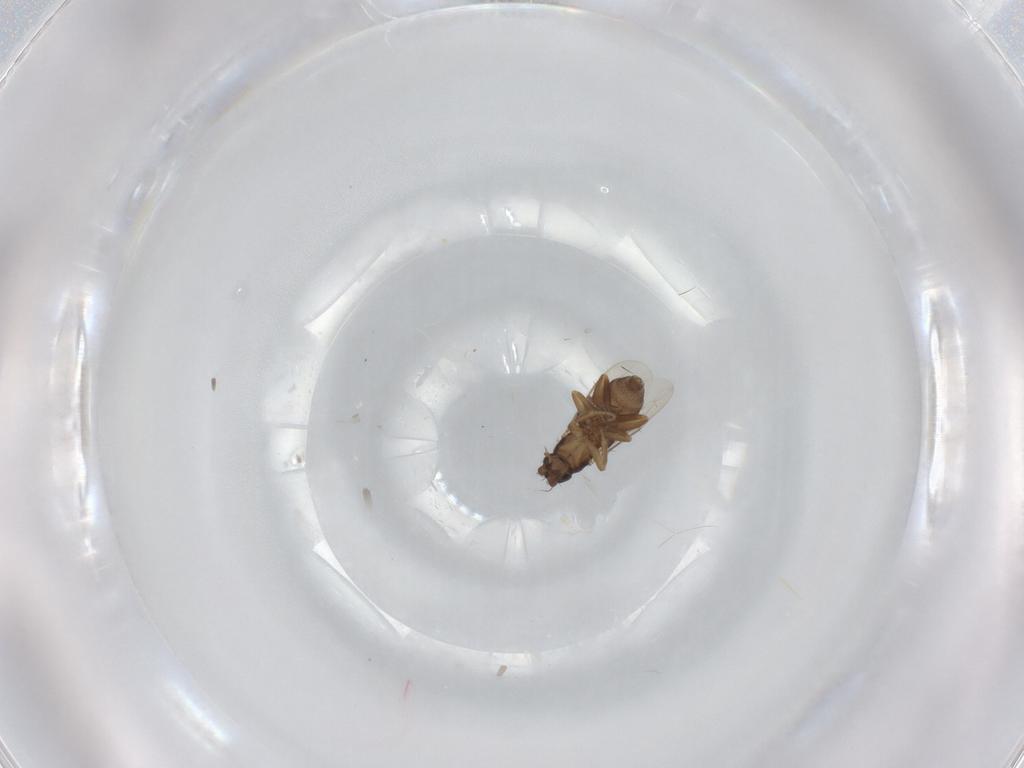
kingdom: Animalia
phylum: Arthropoda
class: Insecta
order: Diptera
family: Phoridae
